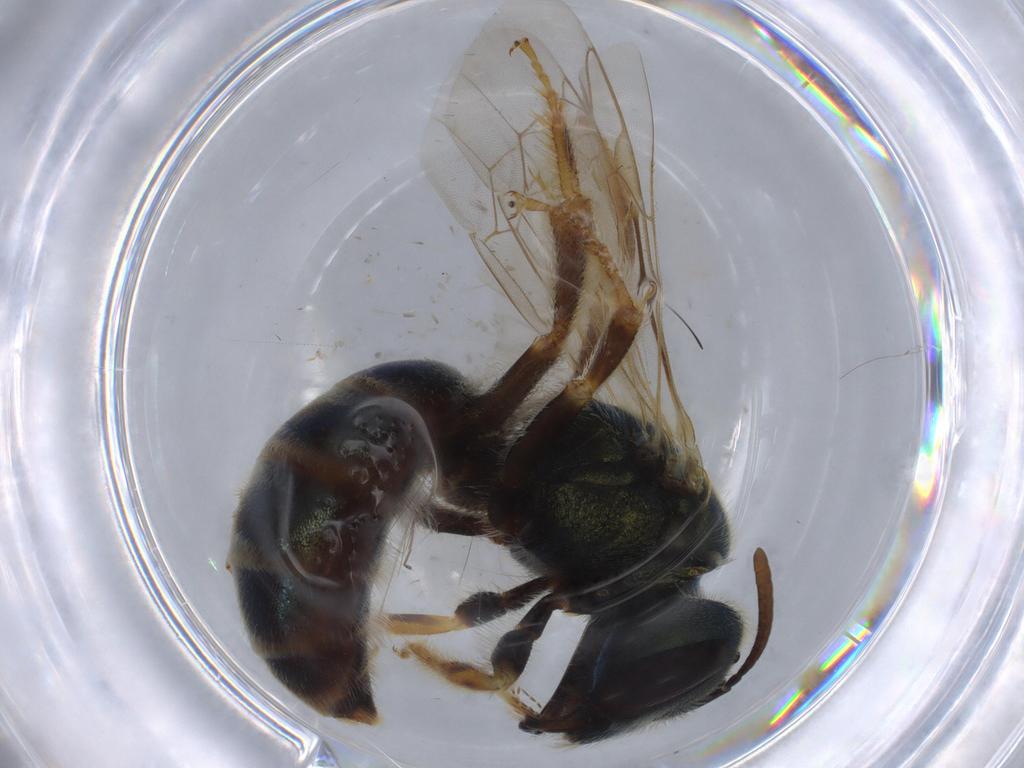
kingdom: Animalia
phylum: Arthropoda
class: Insecta
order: Hymenoptera
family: Halictidae
